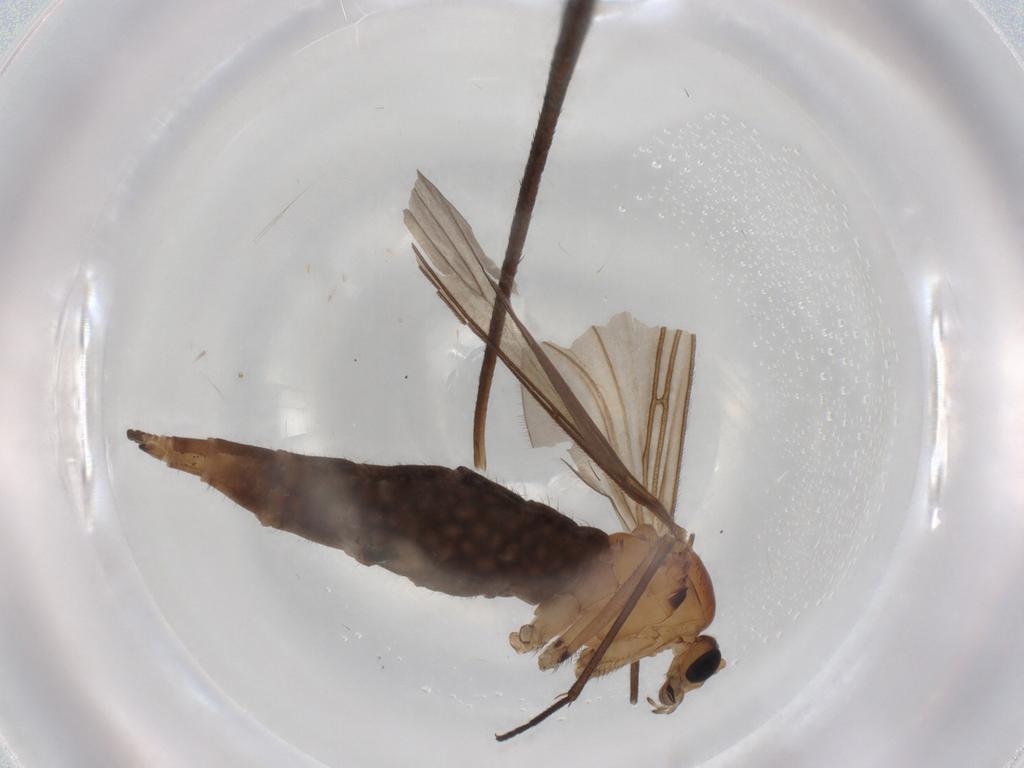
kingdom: Animalia
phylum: Arthropoda
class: Insecta
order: Diptera
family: Sciaridae
